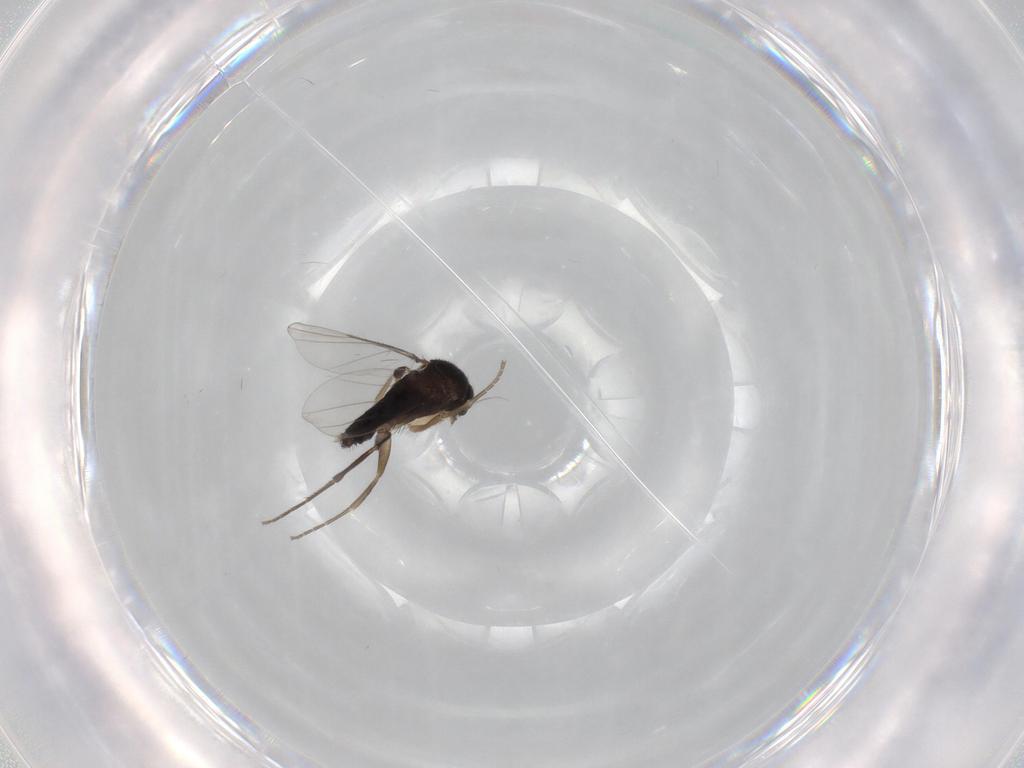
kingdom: Animalia
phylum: Arthropoda
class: Insecta
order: Diptera
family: Phoridae
